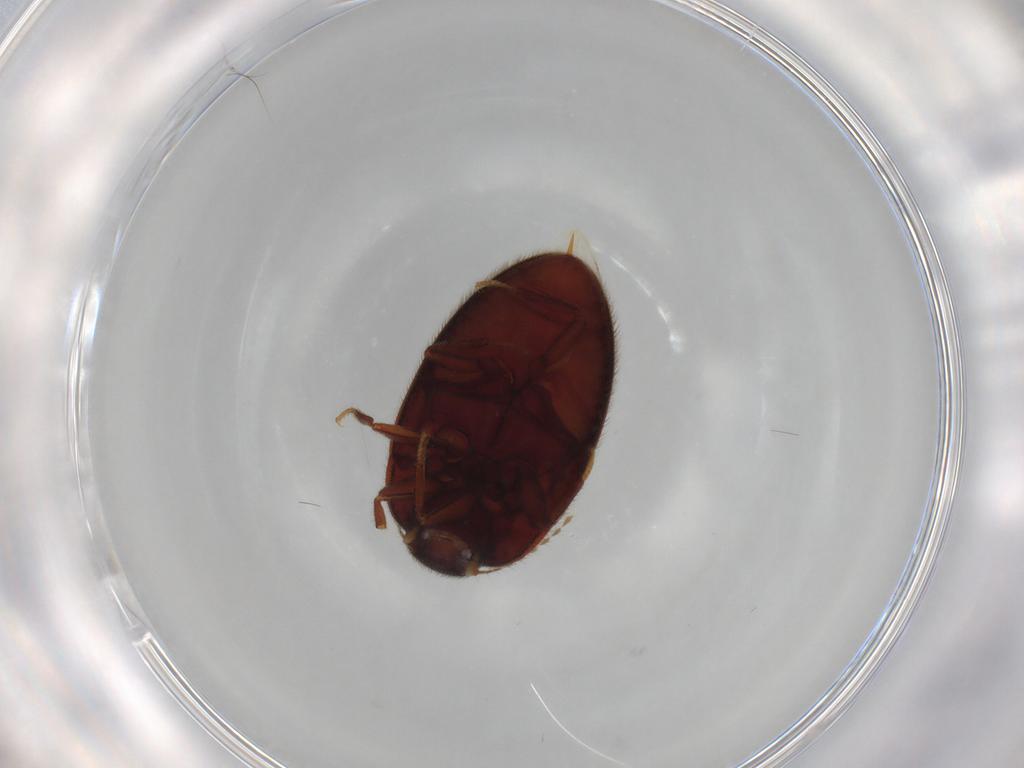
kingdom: Animalia
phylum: Arthropoda
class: Insecta
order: Coleoptera
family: Limnichidae
